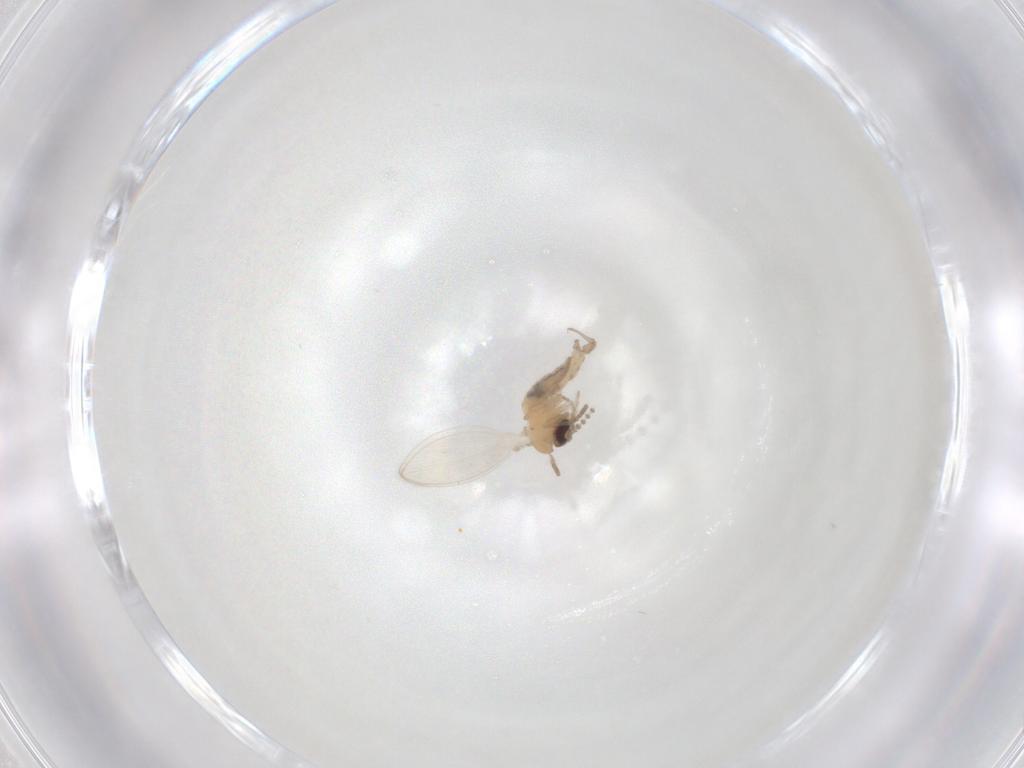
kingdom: Animalia
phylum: Arthropoda
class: Insecta
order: Diptera
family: Psychodidae
